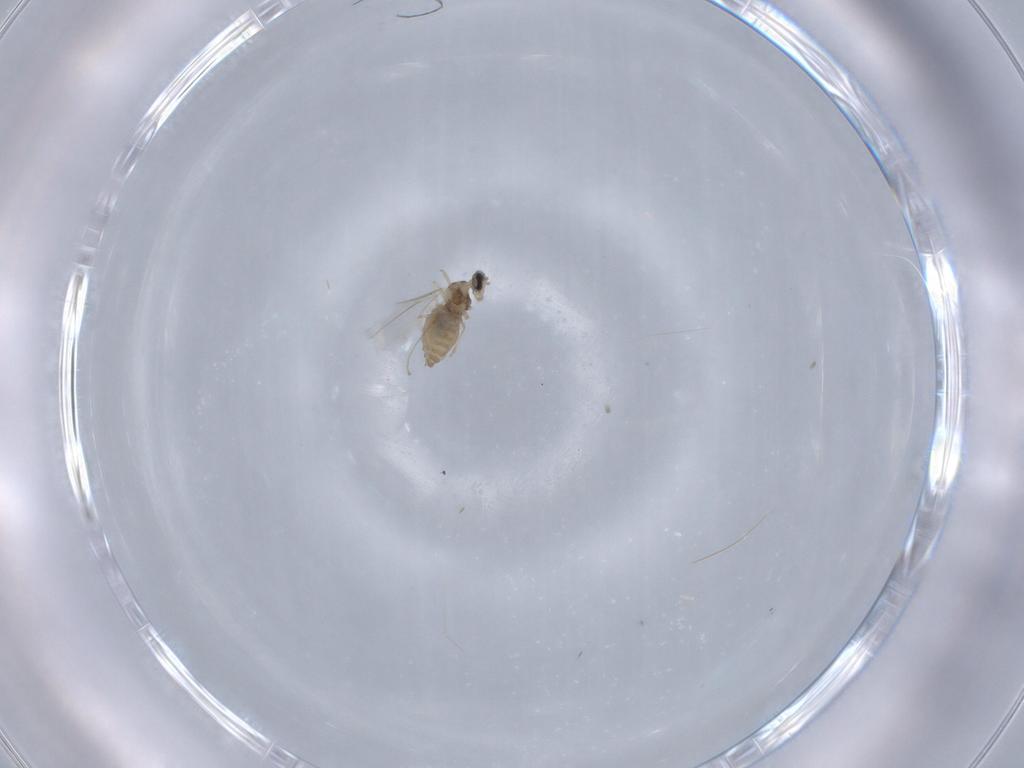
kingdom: Animalia
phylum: Arthropoda
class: Insecta
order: Diptera
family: Cecidomyiidae
